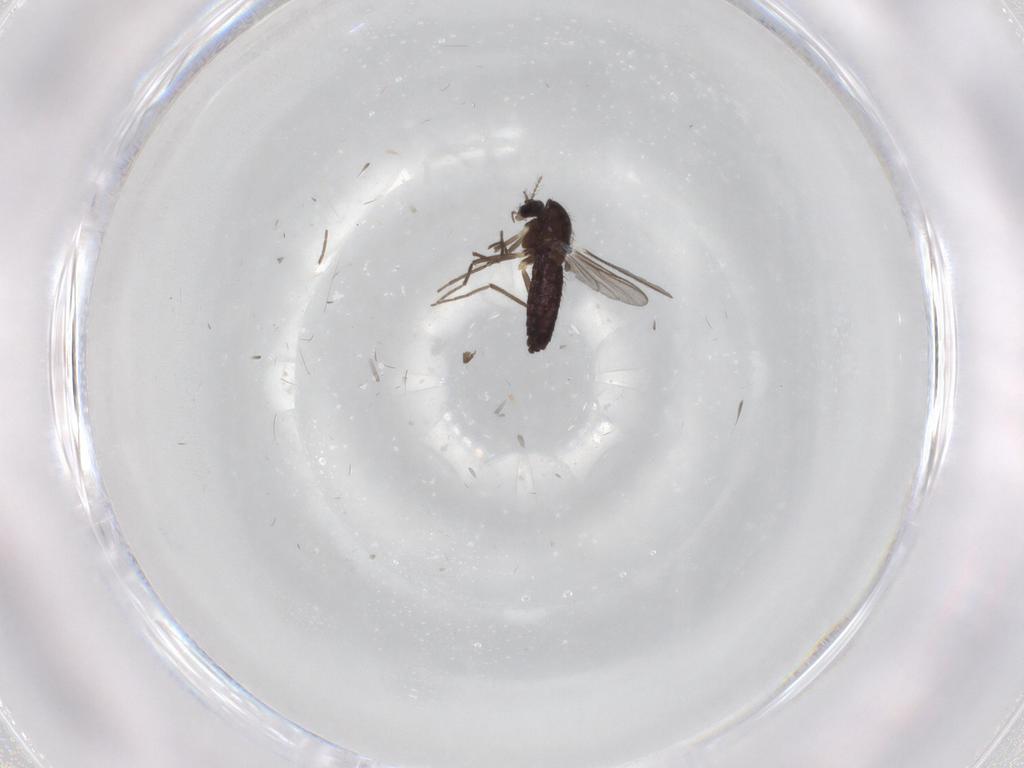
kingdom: Animalia
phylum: Arthropoda
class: Insecta
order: Diptera
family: Chironomidae
